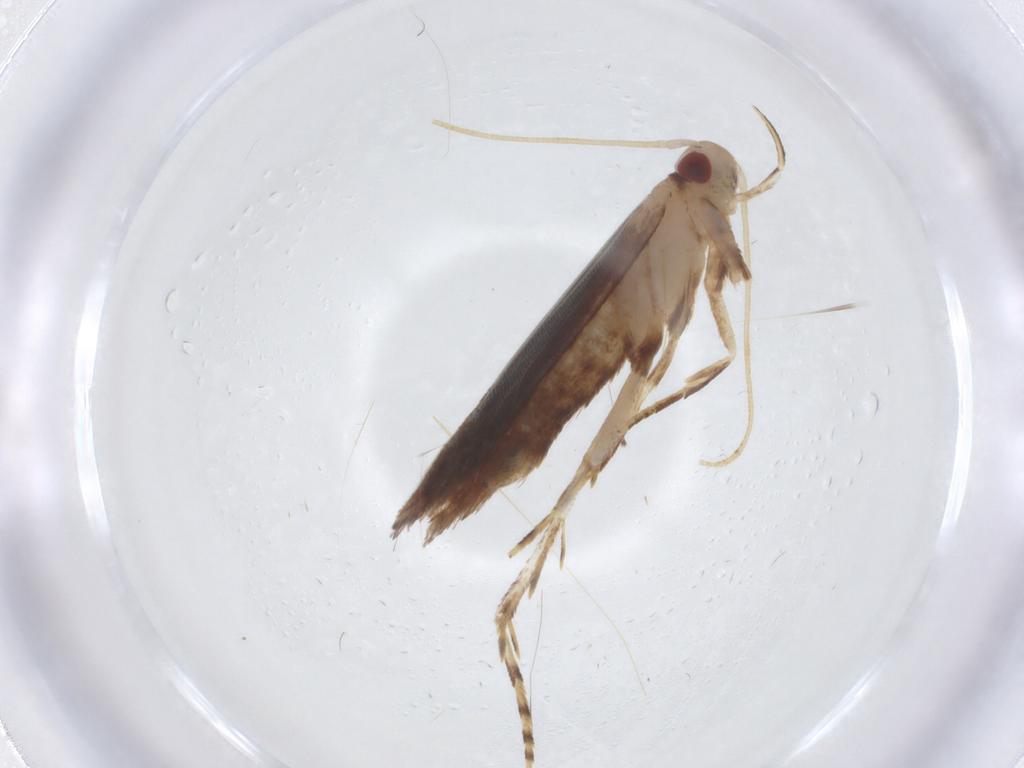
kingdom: Animalia
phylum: Arthropoda
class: Insecta
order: Lepidoptera
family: Cosmopterigidae
